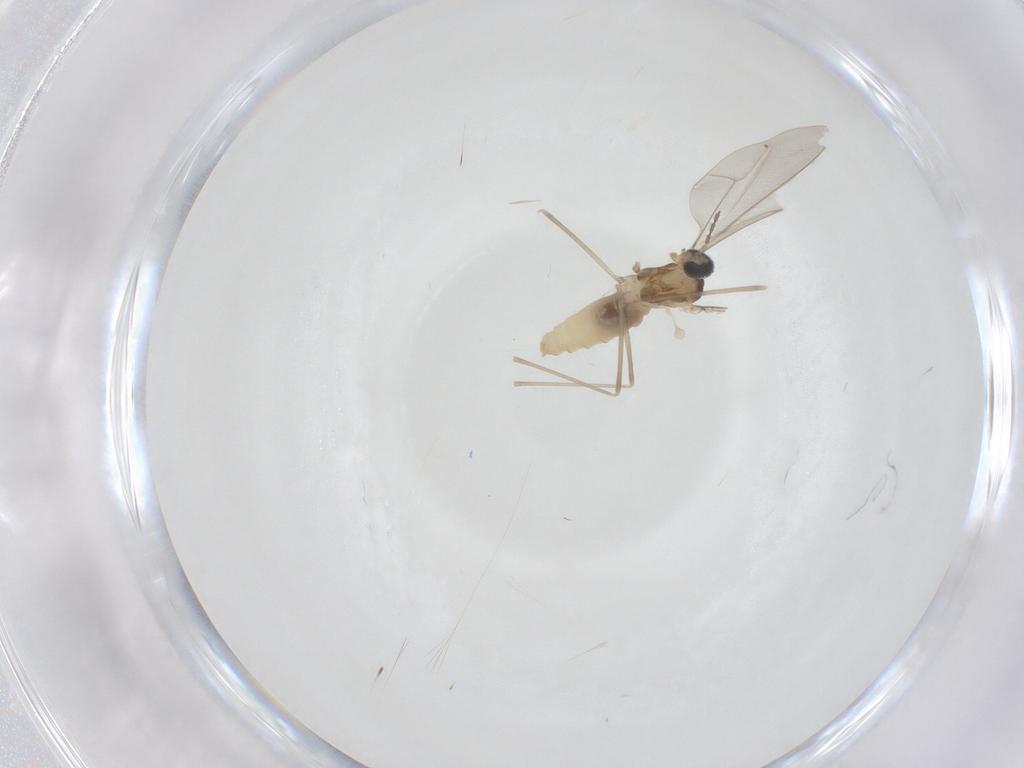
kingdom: Animalia
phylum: Arthropoda
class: Insecta
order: Diptera
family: Cecidomyiidae
